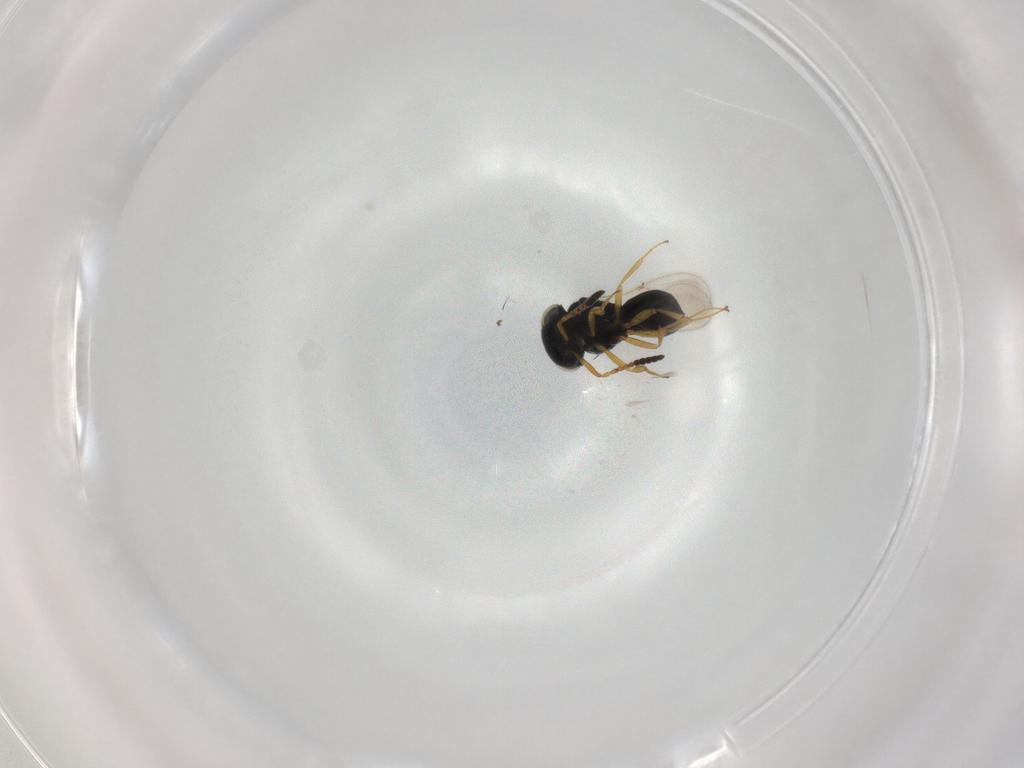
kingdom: Animalia
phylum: Arthropoda
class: Insecta
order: Hymenoptera
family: Scelionidae
